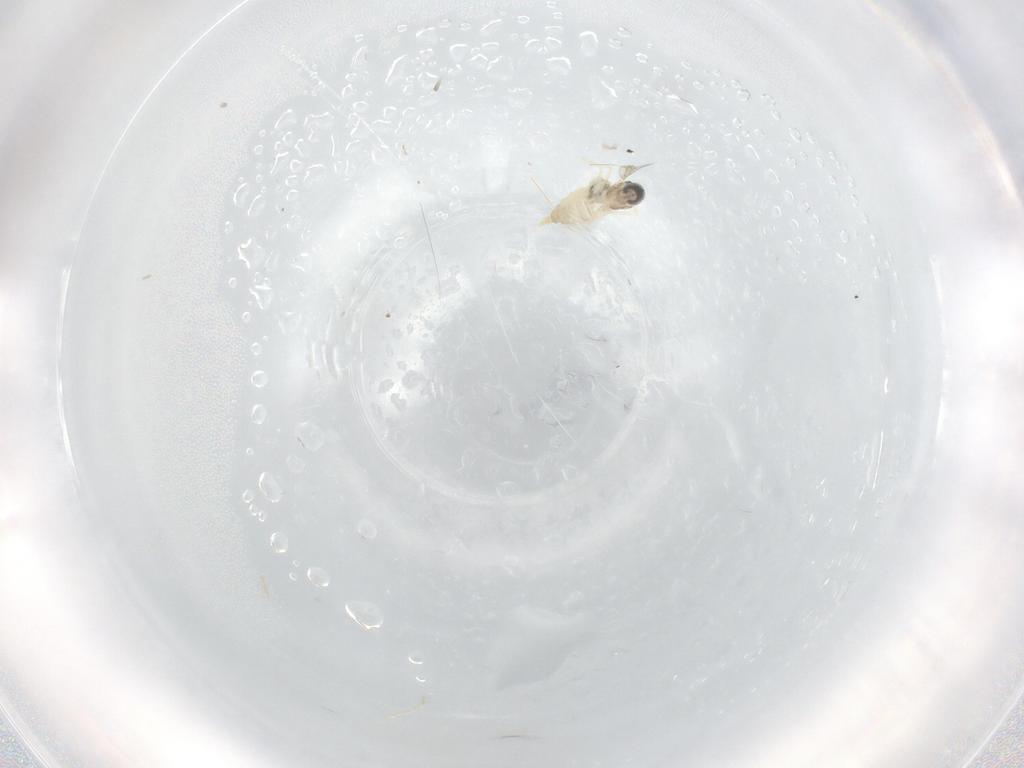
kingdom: Animalia
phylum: Arthropoda
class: Insecta
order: Diptera
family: Cecidomyiidae
